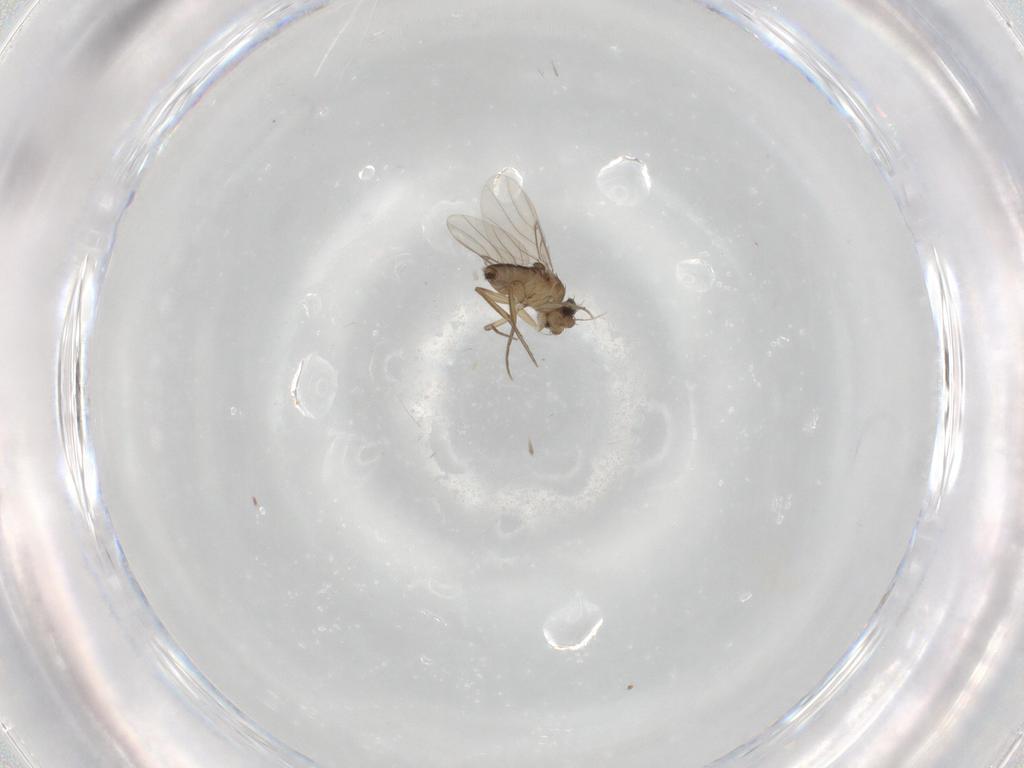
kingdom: Animalia
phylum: Arthropoda
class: Insecta
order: Diptera
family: Phoridae
